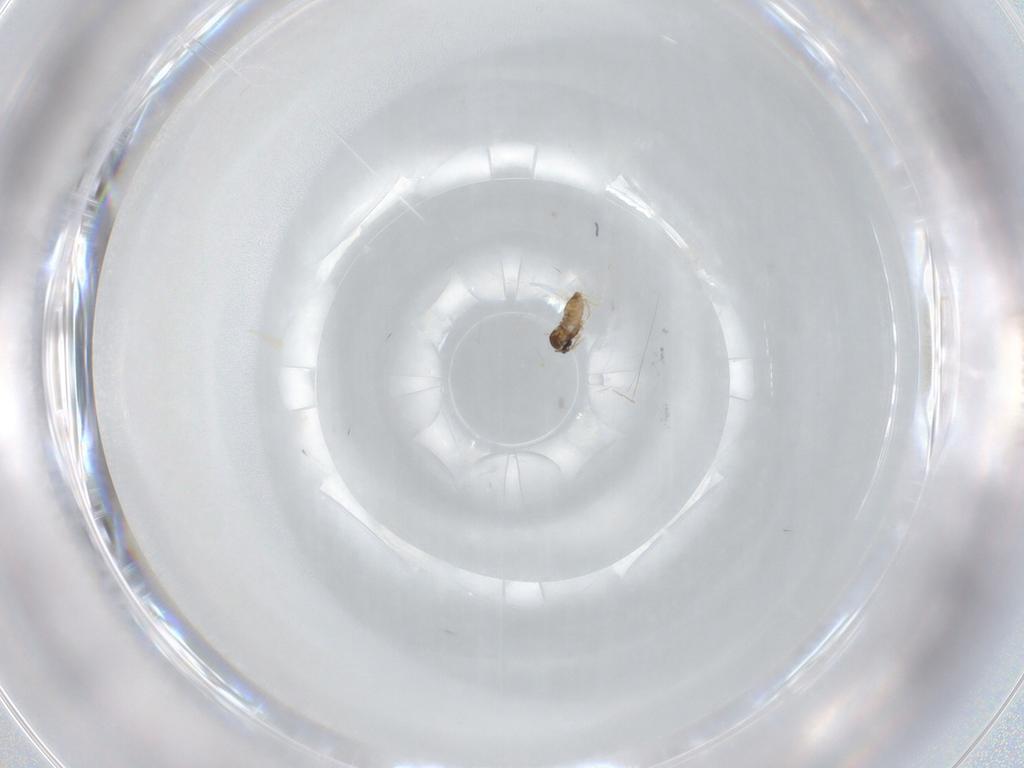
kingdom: Animalia
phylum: Arthropoda
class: Insecta
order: Diptera
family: Cecidomyiidae
